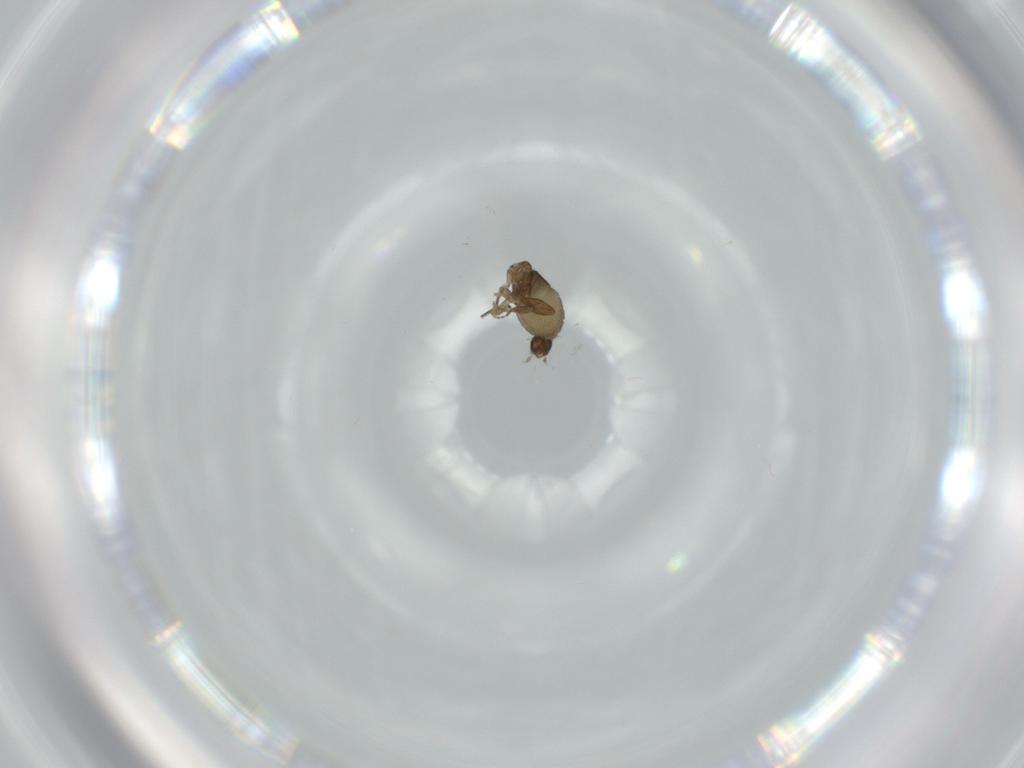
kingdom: Animalia
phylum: Arthropoda
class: Insecta
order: Diptera
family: Phoridae
